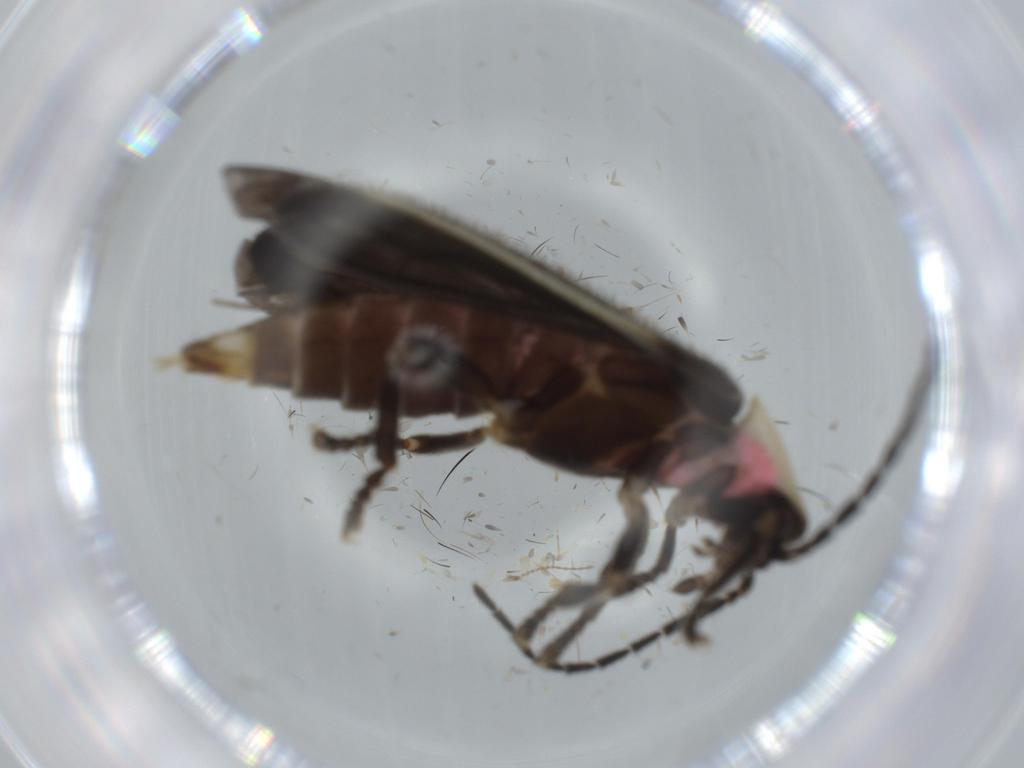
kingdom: Animalia
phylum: Arthropoda
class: Insecta
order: Coleoptera
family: Lampyridae
